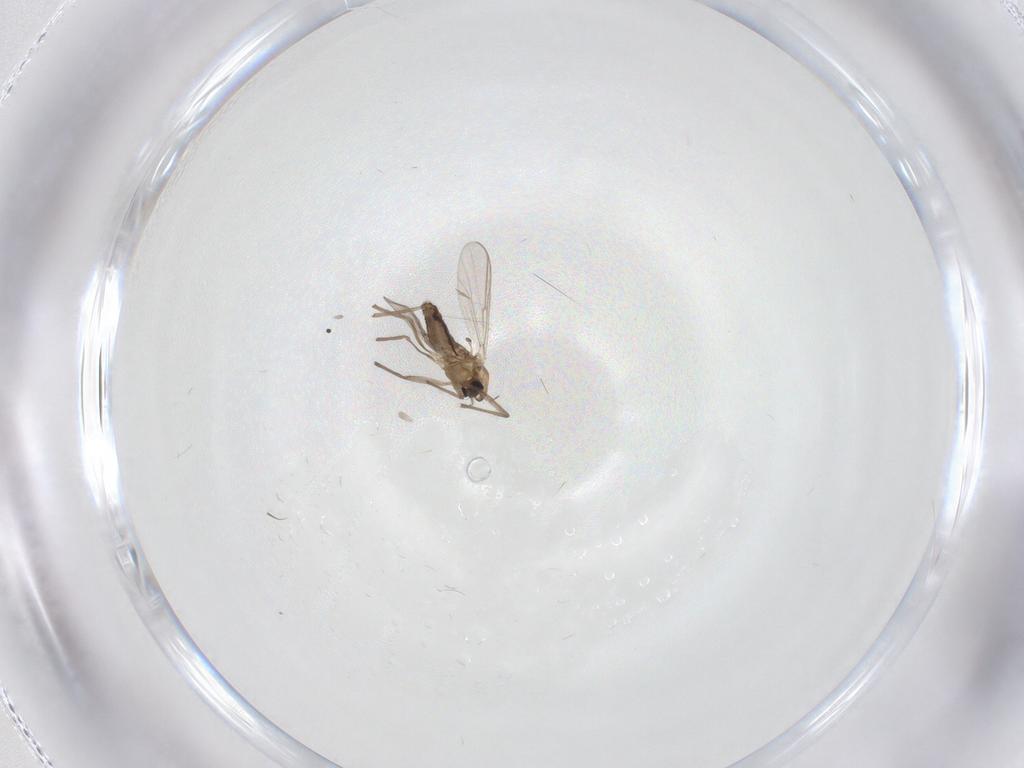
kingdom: Animalia
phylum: Arthropoda
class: Insecta
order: Diptera
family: Chironomidae
